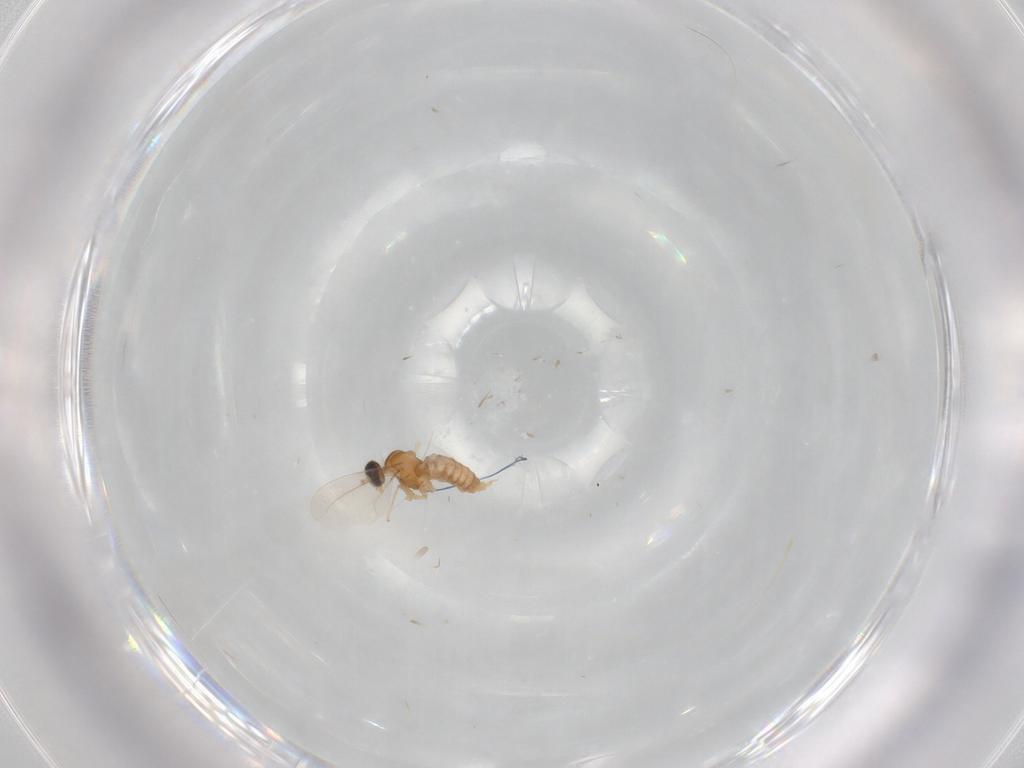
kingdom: Animalia
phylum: Arthropoda
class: Insecta
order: Diptera
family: Cecidomyiidae
